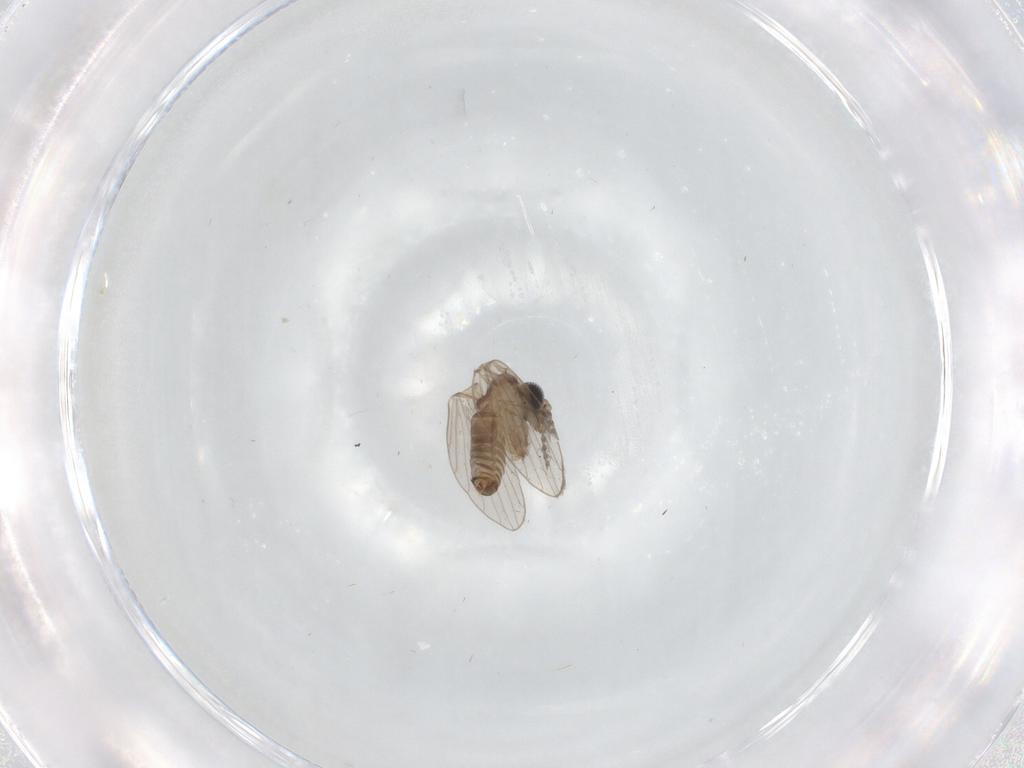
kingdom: Animalia
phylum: Arthropoda
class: Insecta
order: Diptera
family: Psychodidae
